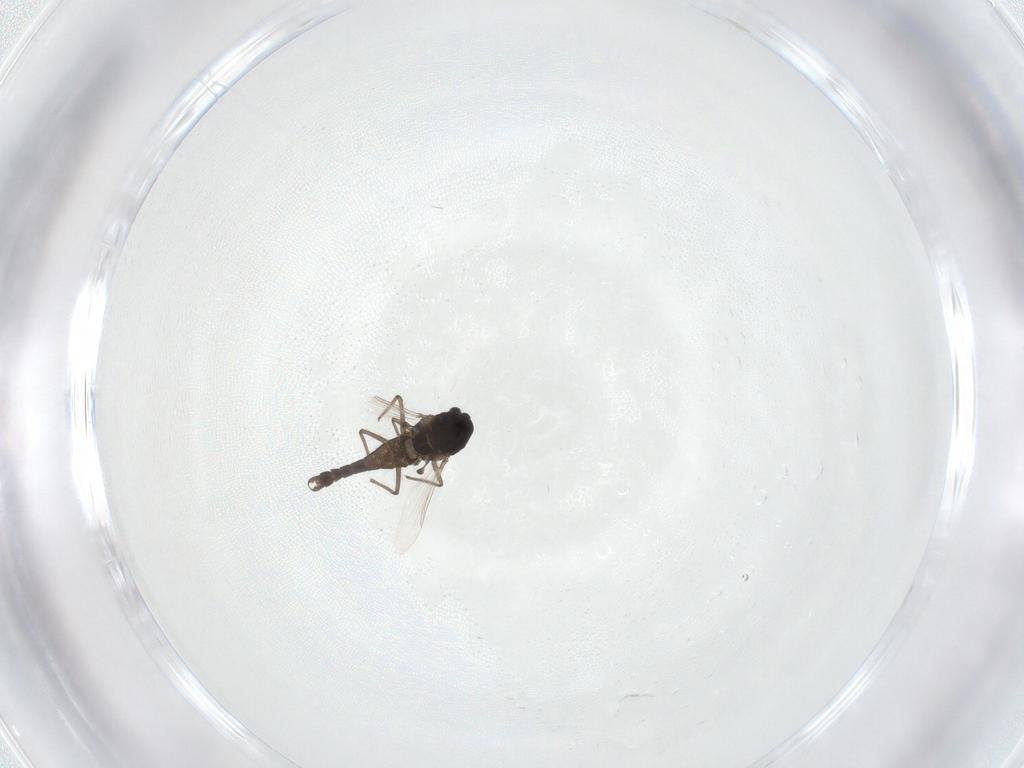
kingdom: Animalia
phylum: Arthropoda
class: Insecta
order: Diptera
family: Chironomidae
